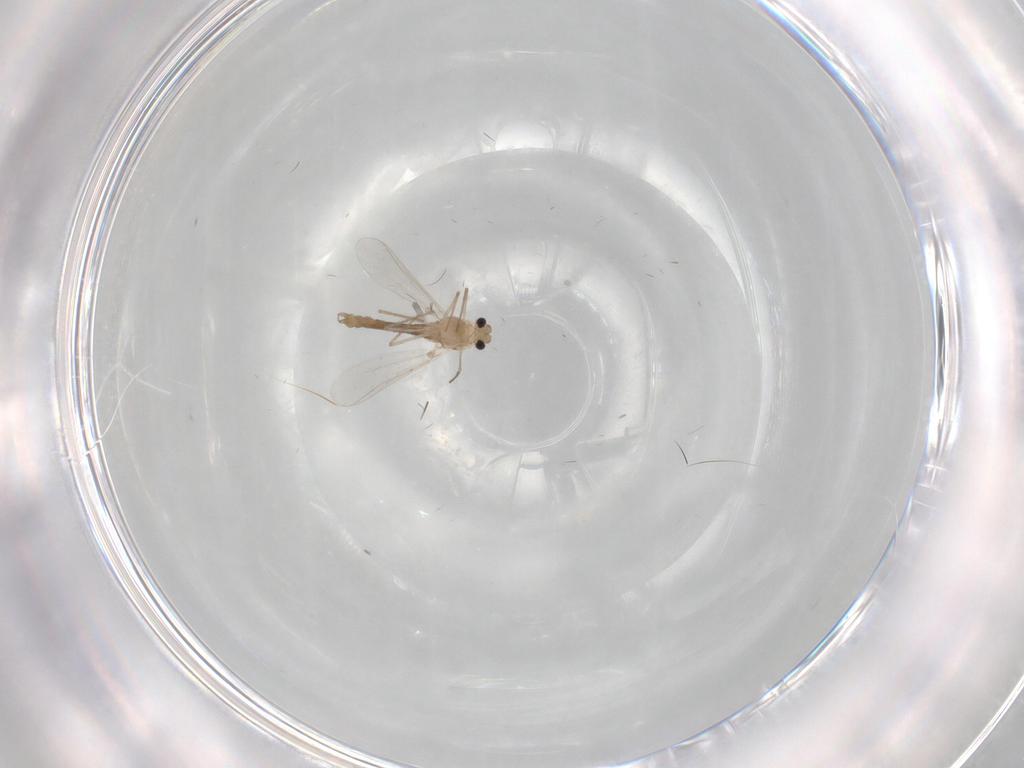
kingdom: Animalia
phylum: Arthropoda
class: Insecta
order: Diptera
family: Chironomidae
